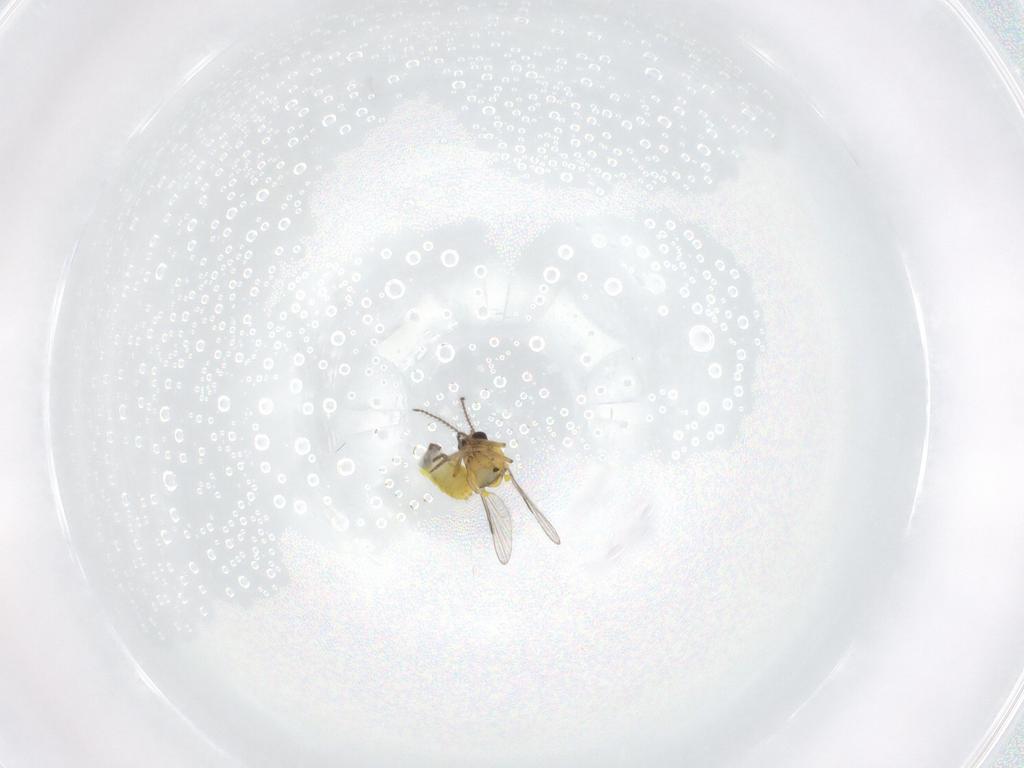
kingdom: Animalia
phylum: Arthropoda
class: Insecta
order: Diptera
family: Ceratopogonidae
